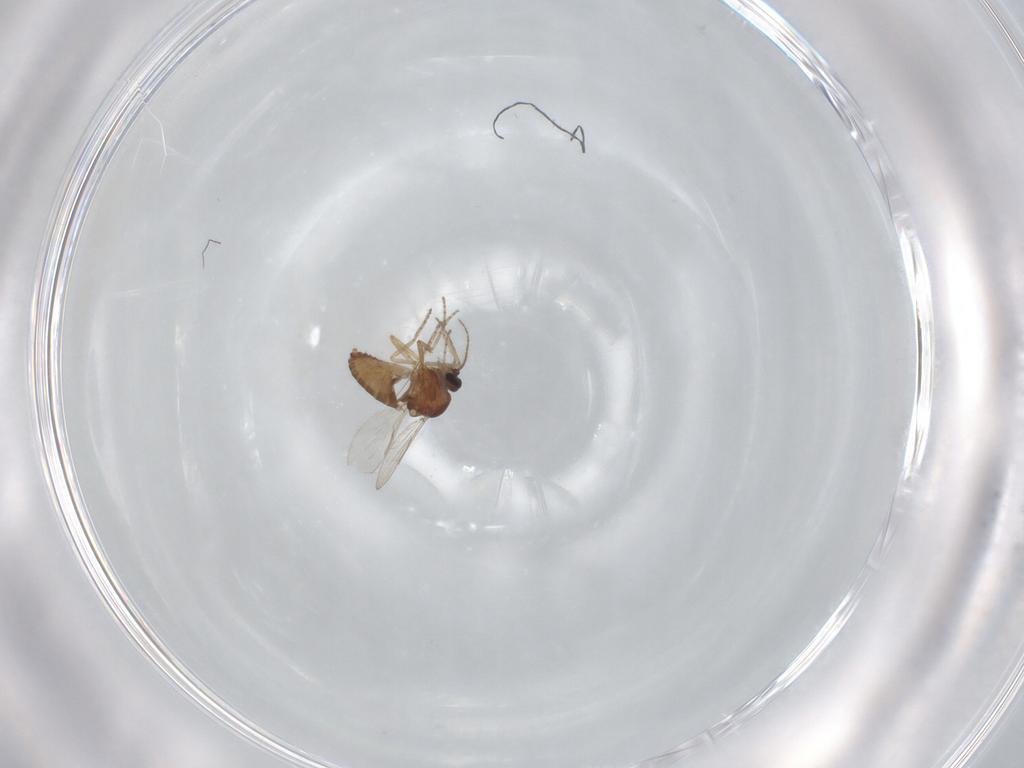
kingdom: Animalia
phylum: Arthropoda
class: Insecta
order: Diptera
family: Ceratopogonidae
